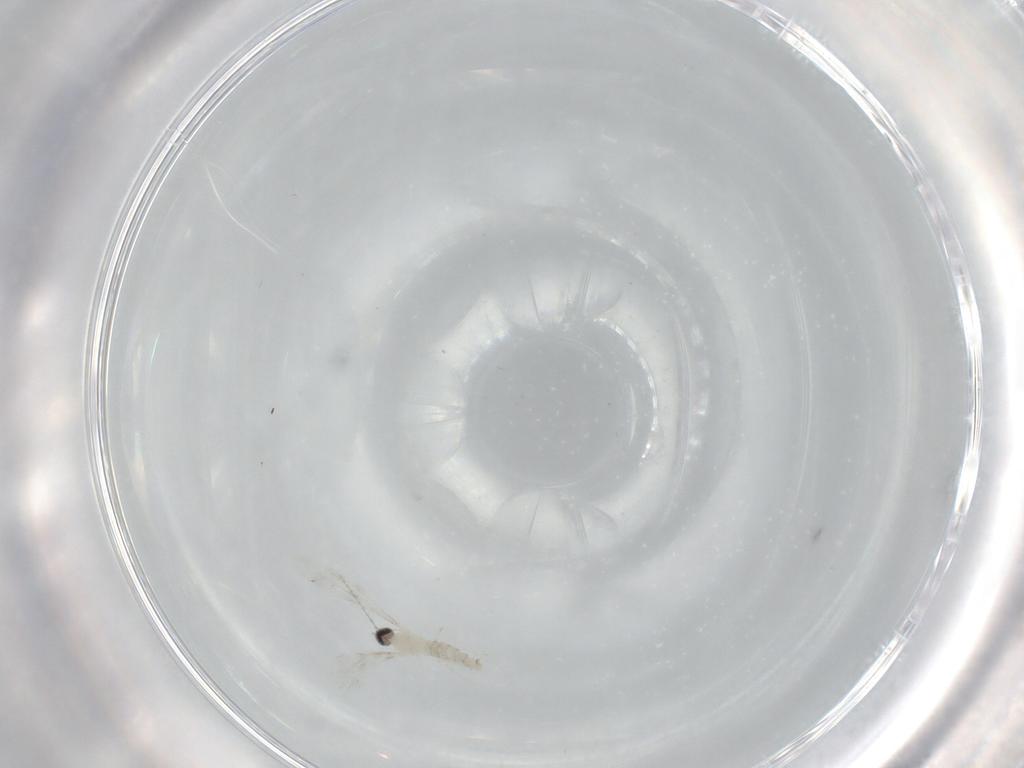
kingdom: Animalia
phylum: Arthropoda
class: Insecta
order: Diptera
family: Cecidomyiidae
